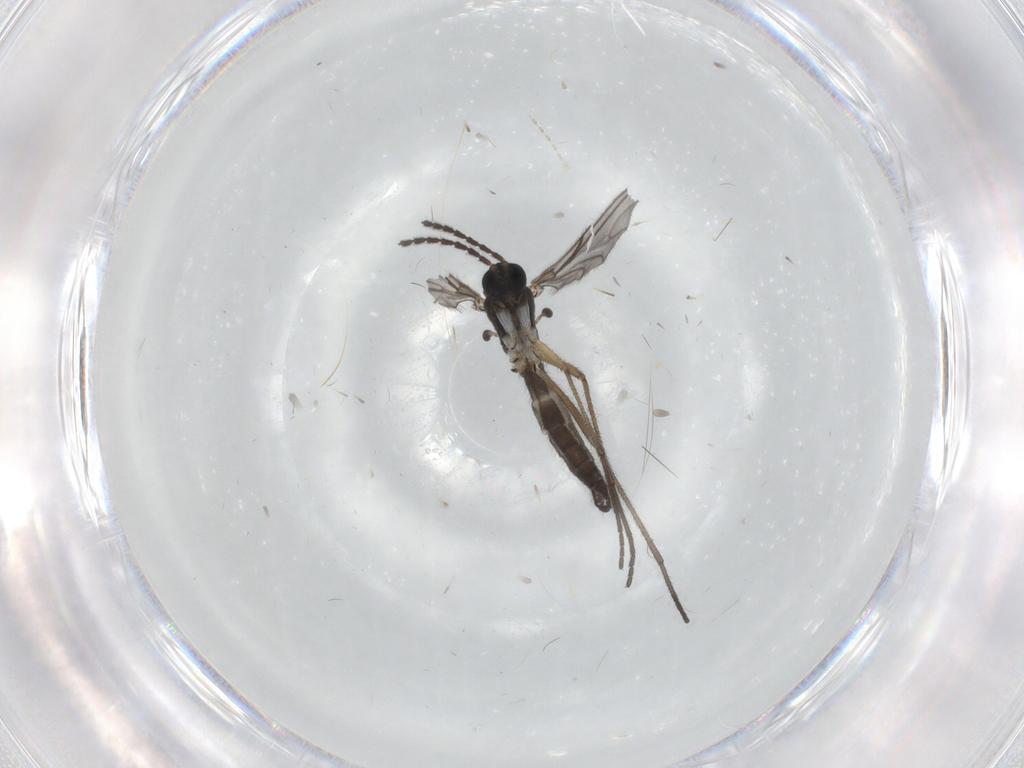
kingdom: Animalia
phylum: Arthropoda
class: Insecta
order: Diptera
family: Sciaridae
